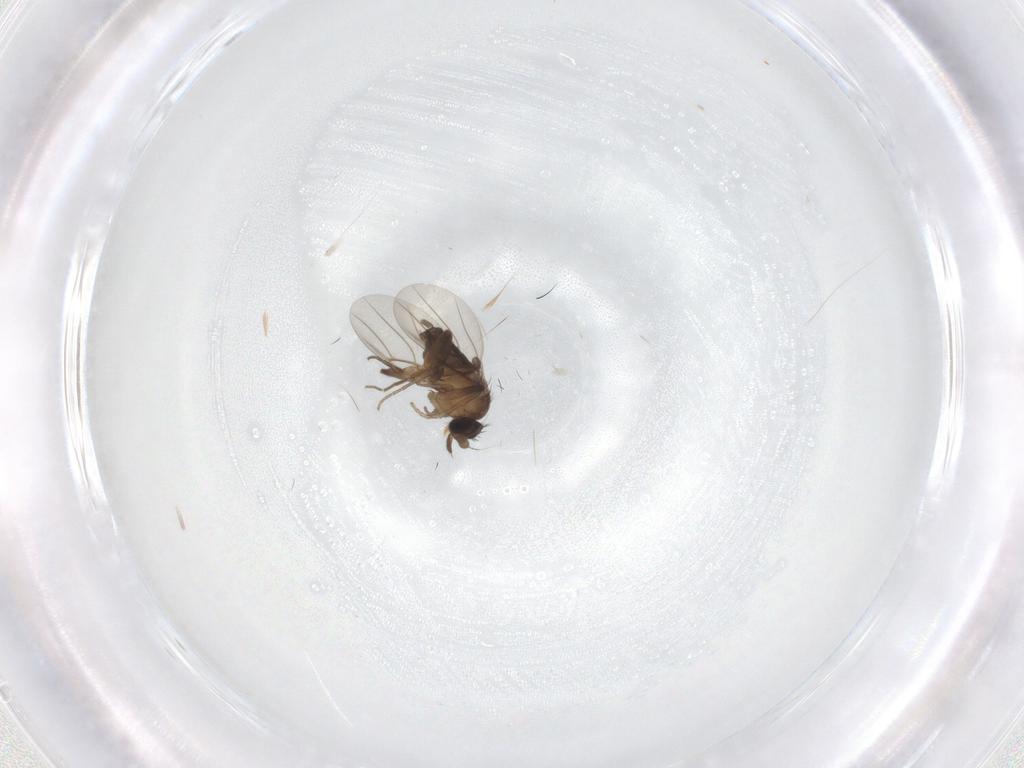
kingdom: Animalia
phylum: Arthropoda
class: Insecta
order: Diptera
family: Phoridae
